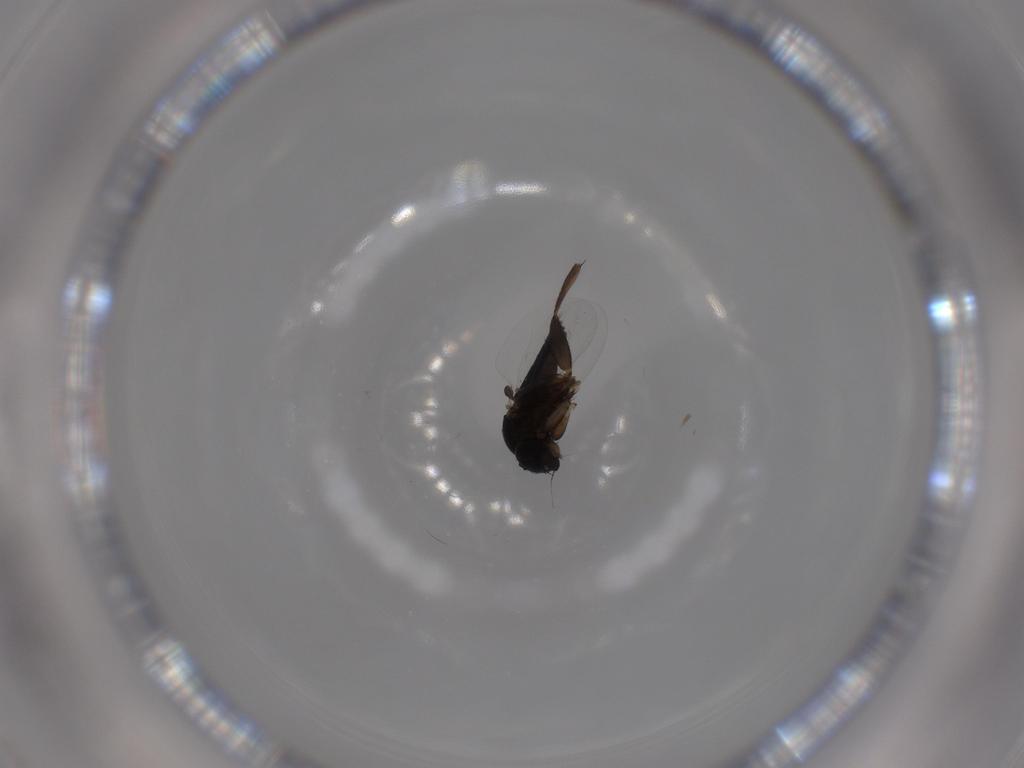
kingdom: Animalia
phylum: Arthropoda
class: Insecta
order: Diptera
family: Phoridae
